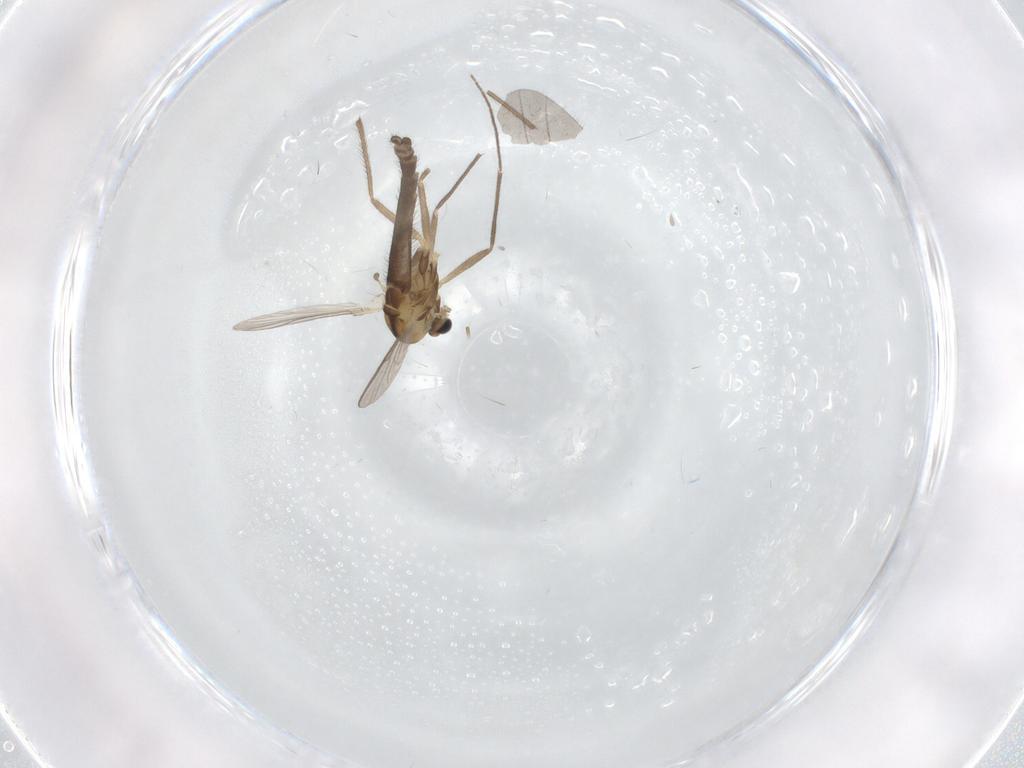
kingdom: Animalia
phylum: Arthropoda
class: Insecta
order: Diptera
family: Chironomidae
